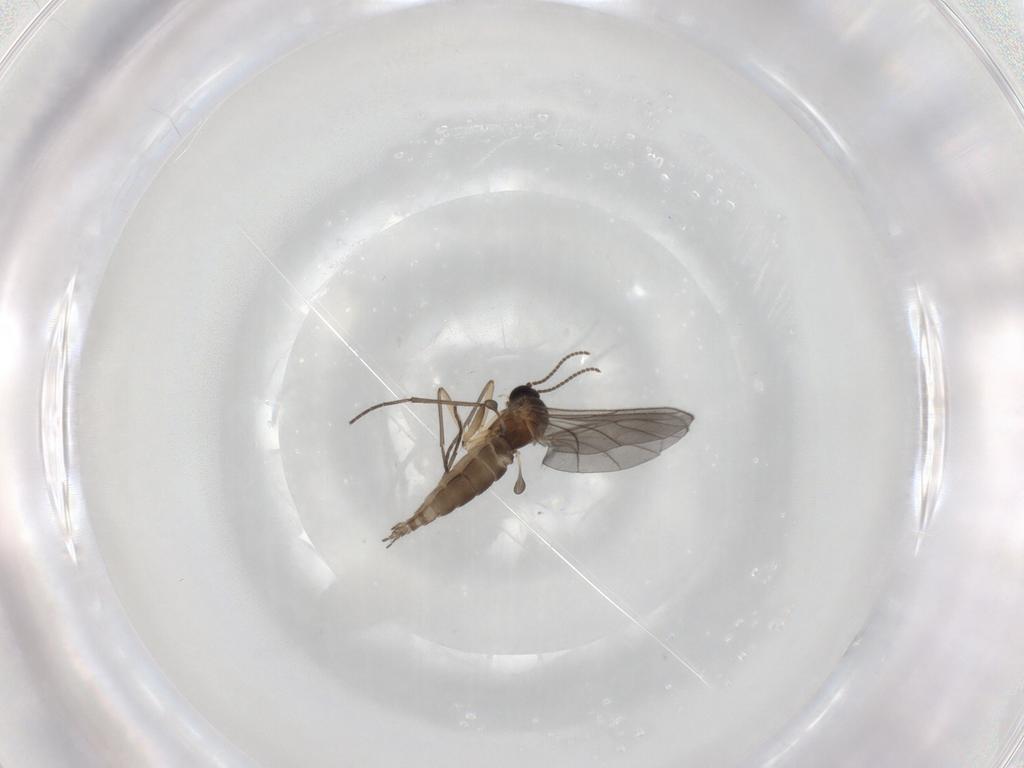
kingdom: Animalia
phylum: Arthropoda
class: Insecta
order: Diptera
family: Sciaridae
